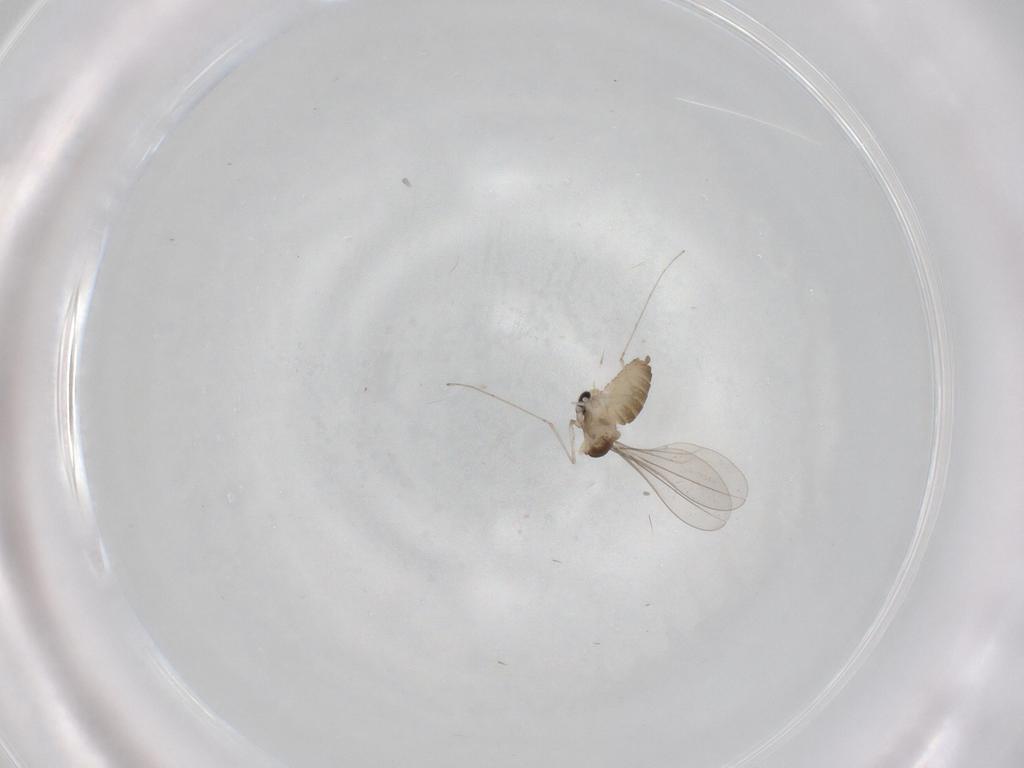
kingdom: Animalia
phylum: Arthropoda
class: Insecta
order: Diptera
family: Cecidomyiidae
